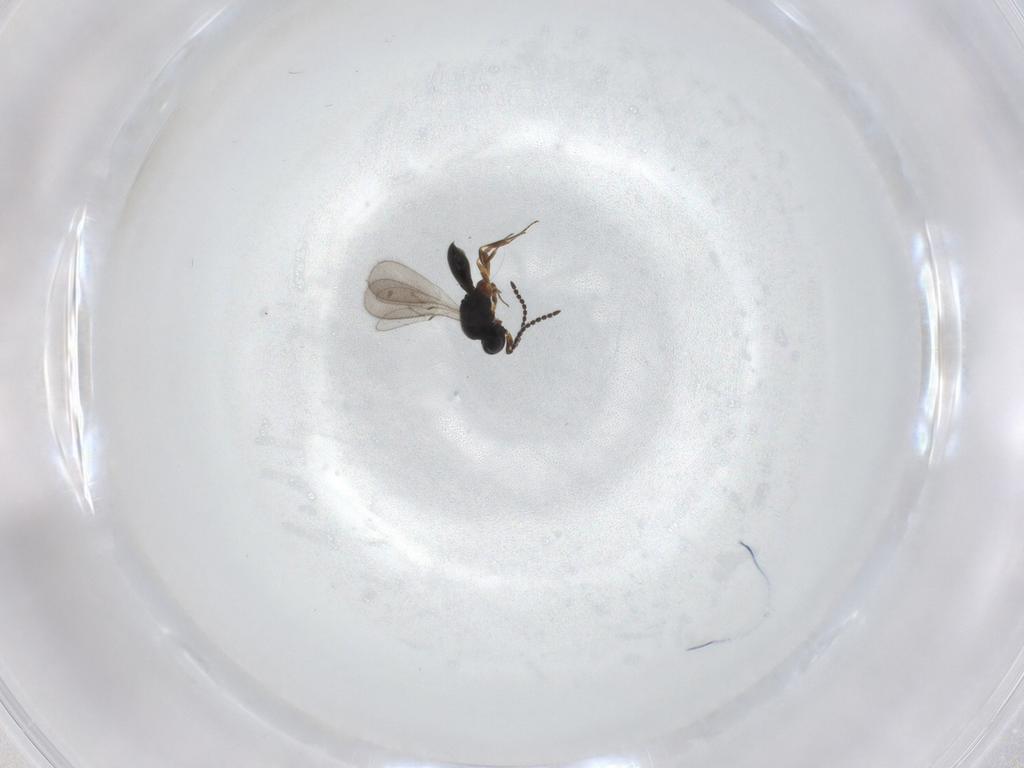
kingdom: Animalia
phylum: Arthropoda
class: Insecta
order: Hymenoptera
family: Scelionidae
